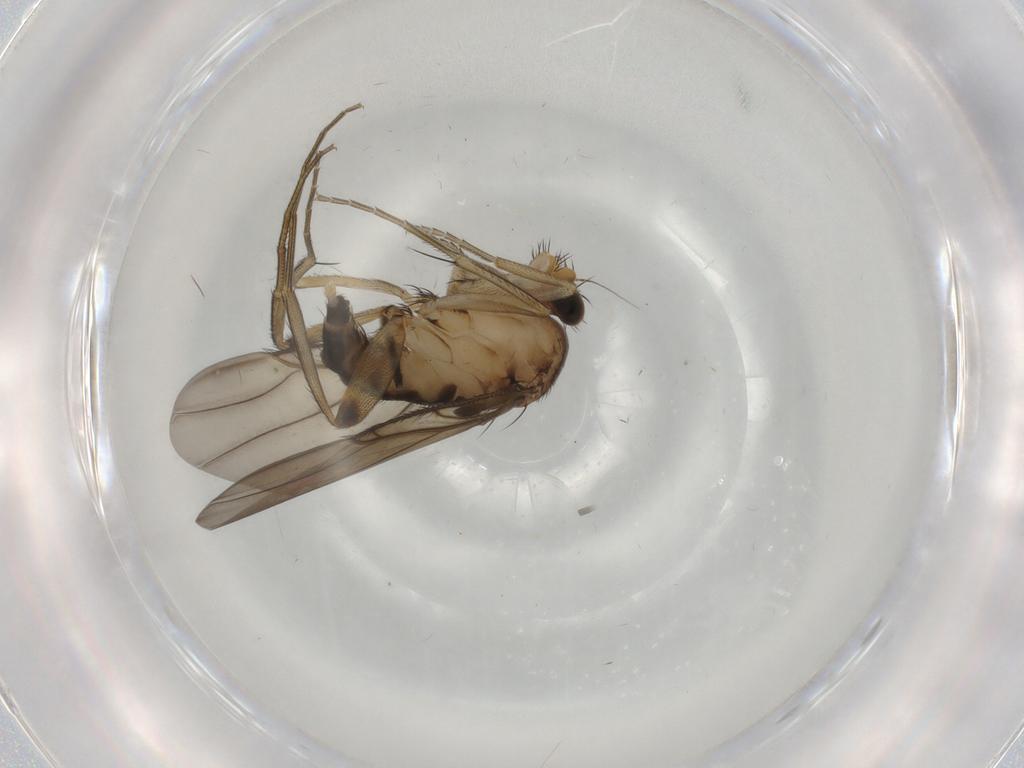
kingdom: Animalia
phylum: Arthropoda
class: Insecta
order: Diptera
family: Phoridae
